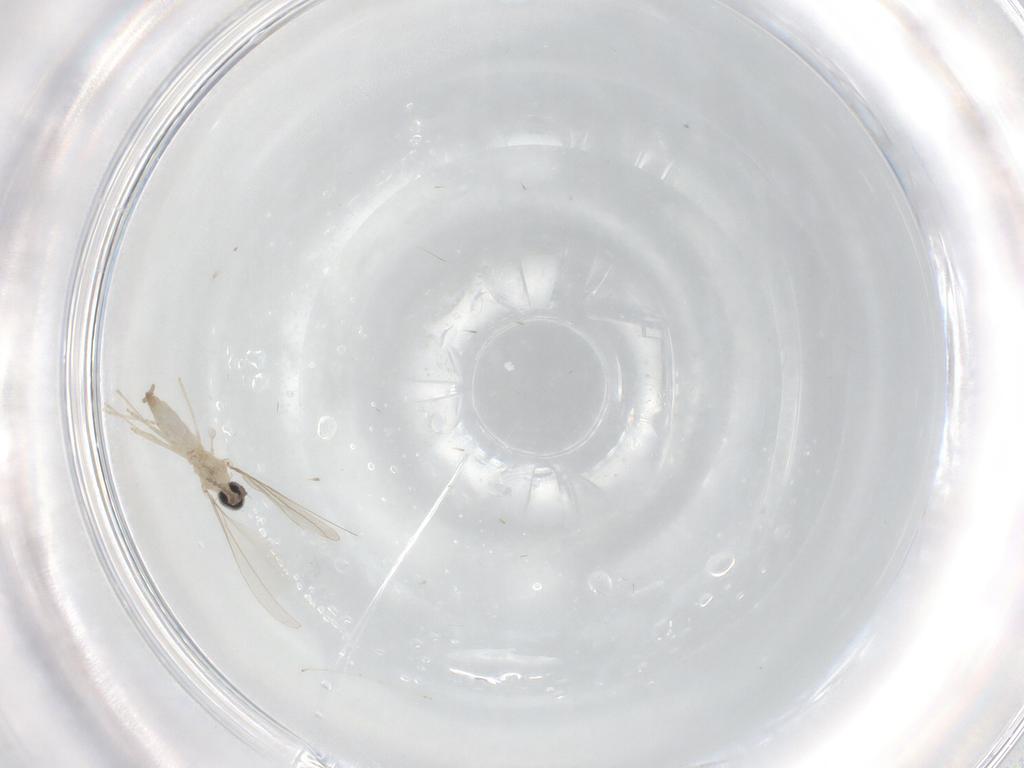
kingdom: Animalia
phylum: Arthropoda
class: Insecta
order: Diptera
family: Cecidomyiidae
